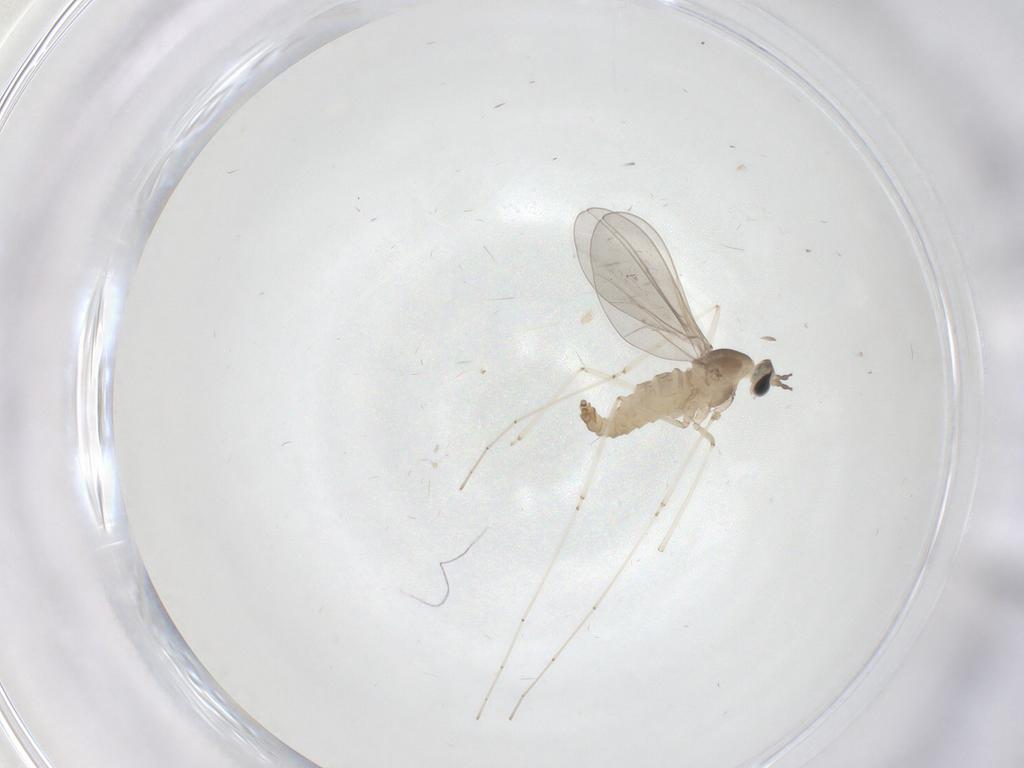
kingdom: Animalia
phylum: Arthropoda
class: Insecta
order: Diptera
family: Cecidomyiidae
